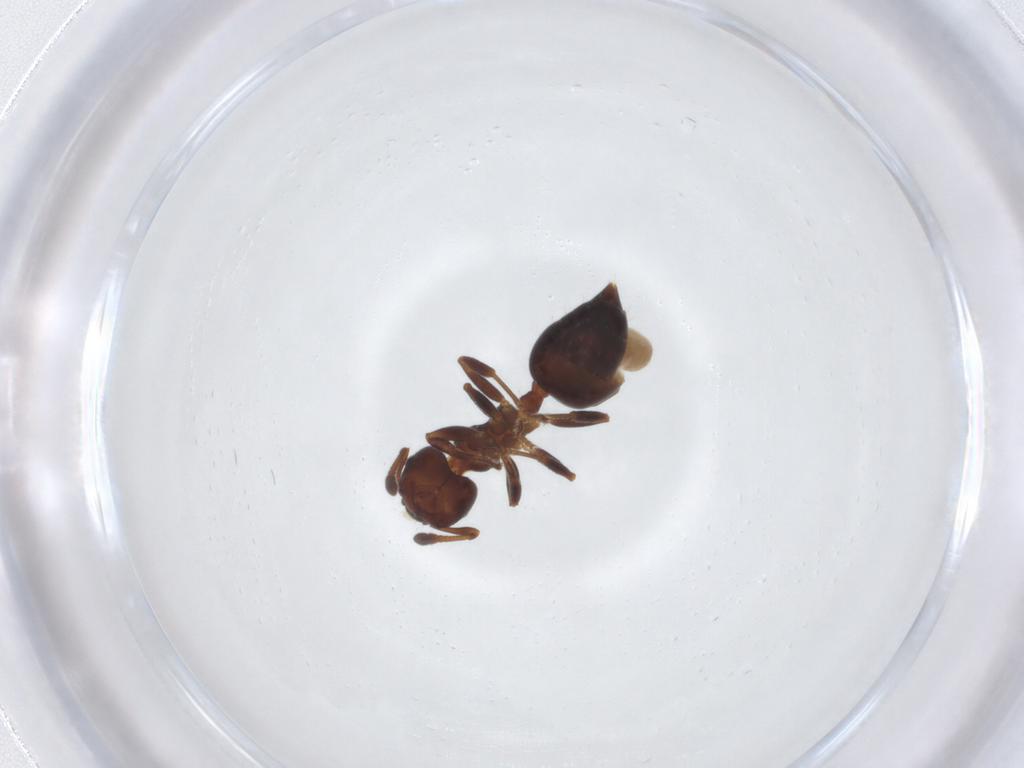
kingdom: Animalia
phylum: Arthropoda
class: Insecta
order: Hymenoptera
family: Formicidae
